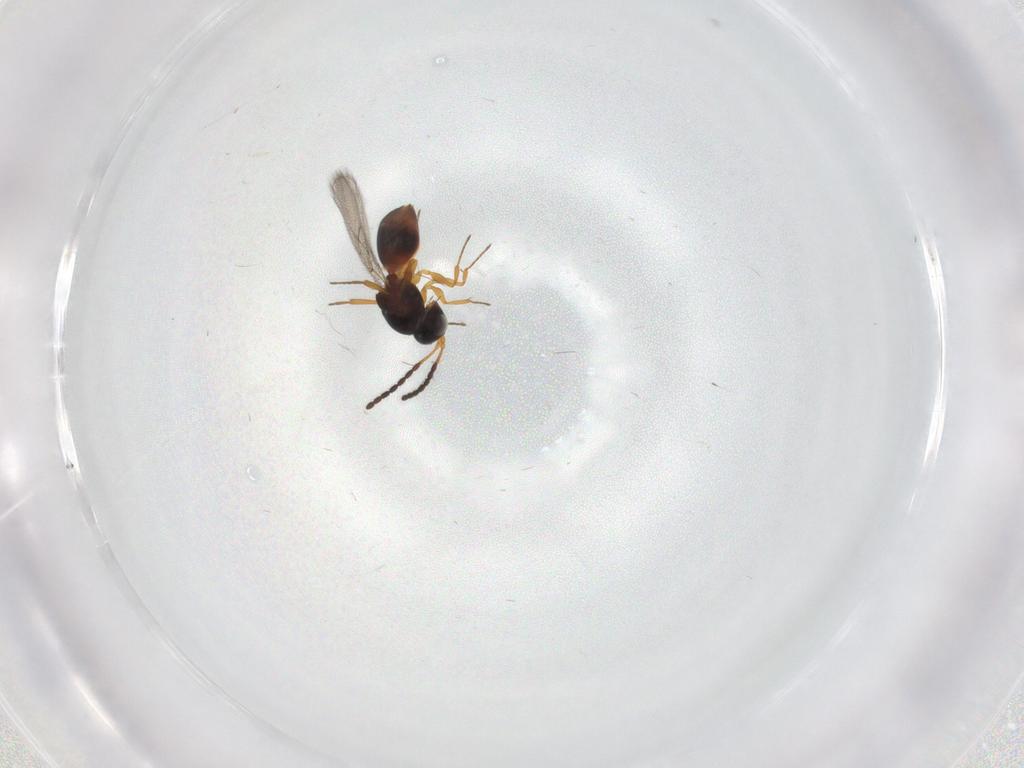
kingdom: Animalia
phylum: Arthropoda
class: Insecta
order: Hymenoptera
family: Figitidae
